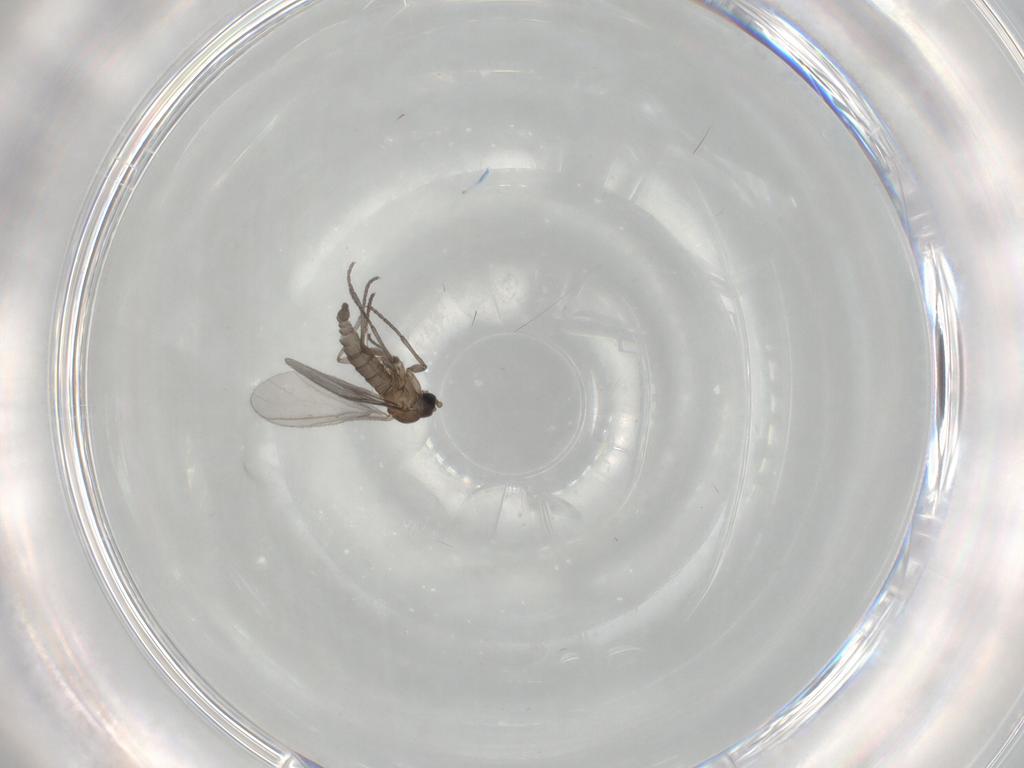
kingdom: Animalia
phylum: Arthropoda
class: Insecta
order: Diptera
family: Sciaridae
